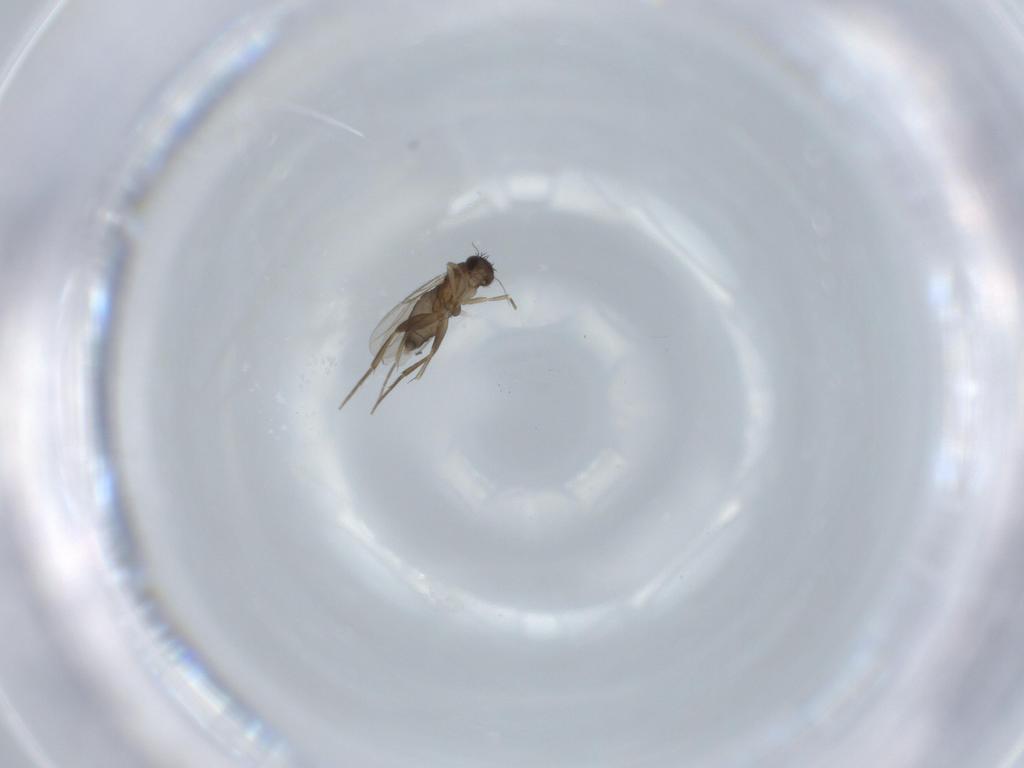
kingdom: Animalia
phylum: Arthropoda
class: Insecta
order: Diptera
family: Phoridae
